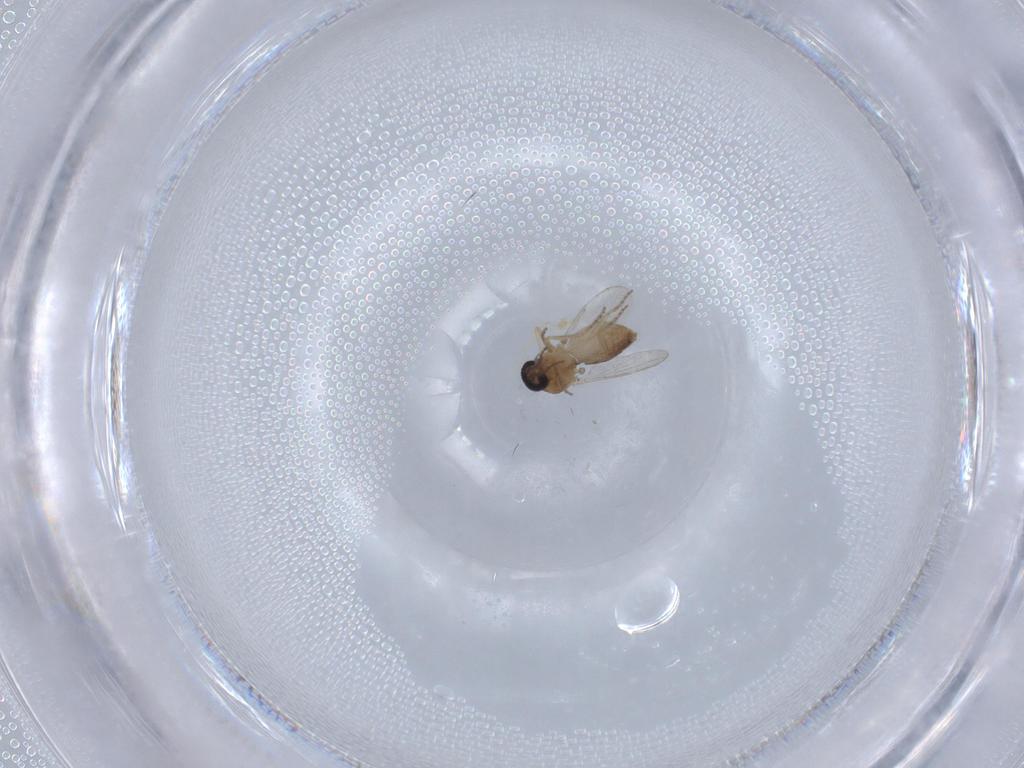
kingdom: Animalia
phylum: Arthropoda
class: Insecta
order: Diptera
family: Ceratopogonidae
